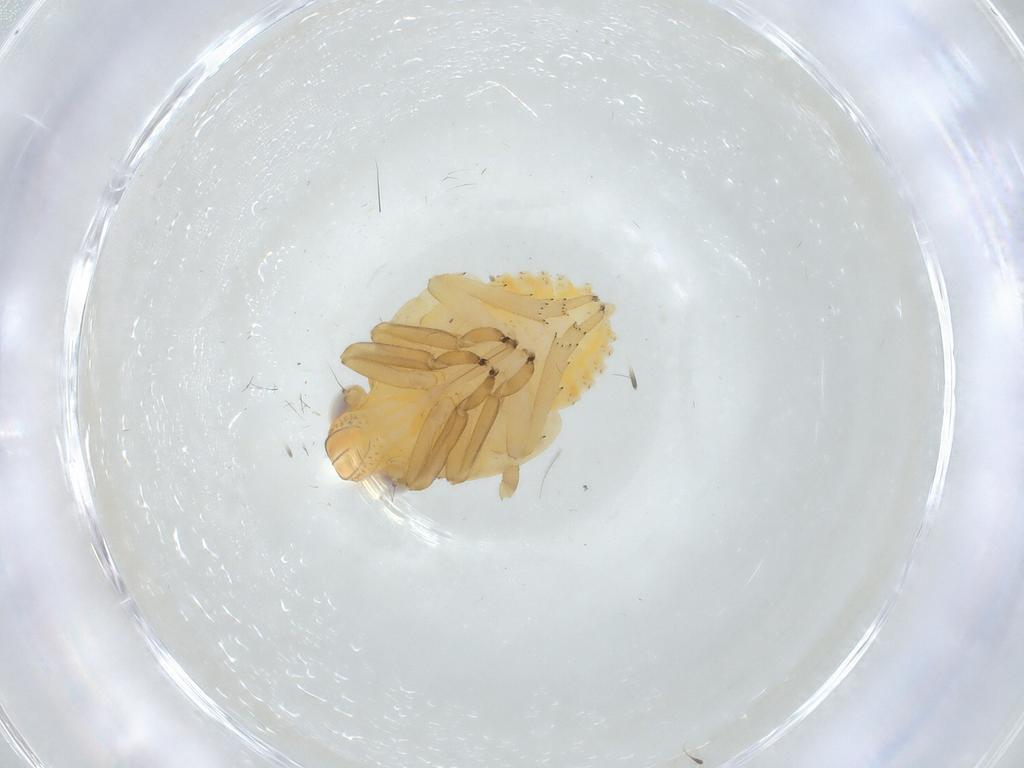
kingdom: Animalia
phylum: Arthropoda
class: Insecta
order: Hemiptera
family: Issidae
